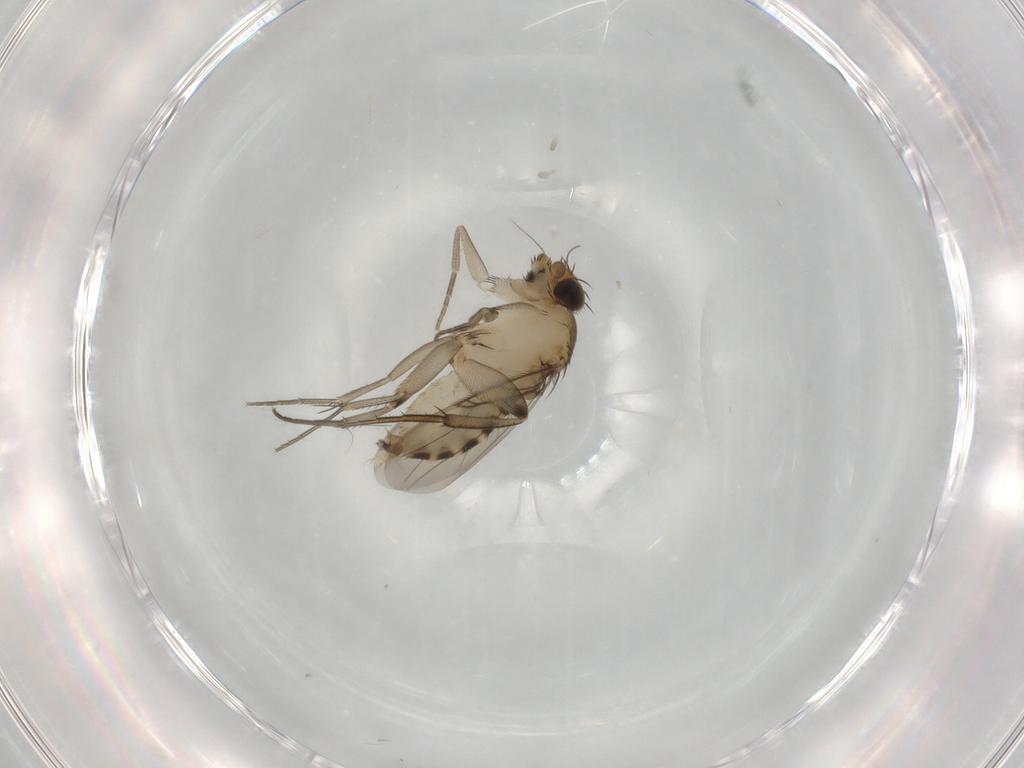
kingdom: Animalia
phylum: Arthropoda
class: Insecta
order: Diptera
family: Phoridae
